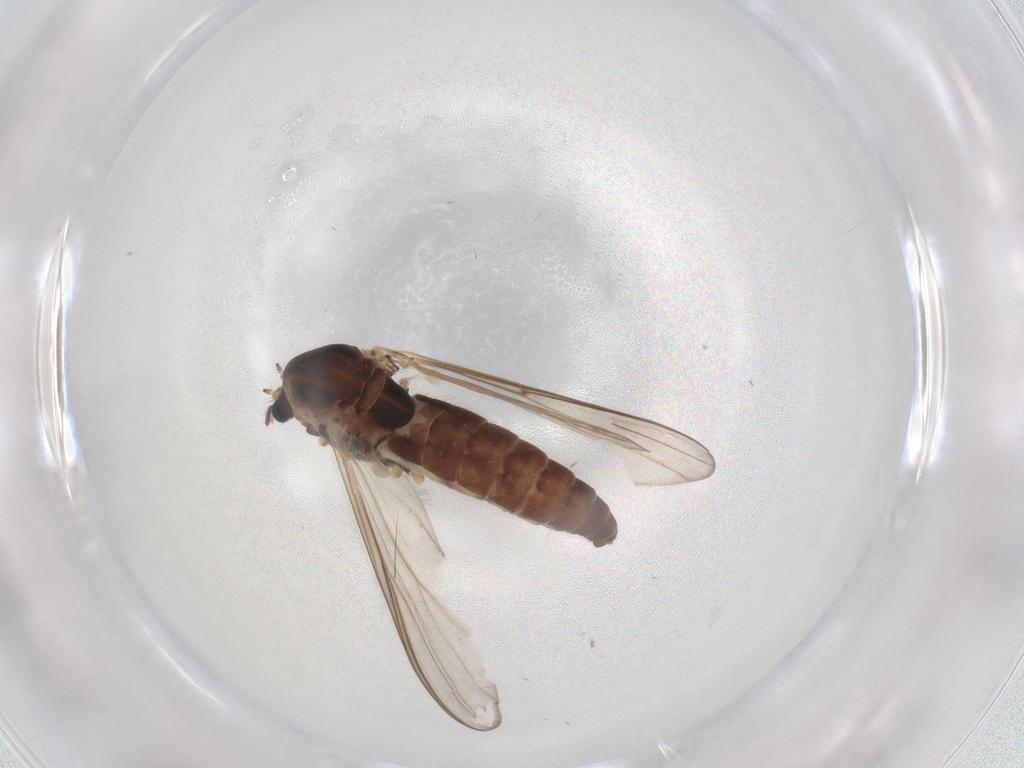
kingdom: Animalia
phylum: Arthropoda
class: Insecta
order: Diptera
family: Chironomidae
